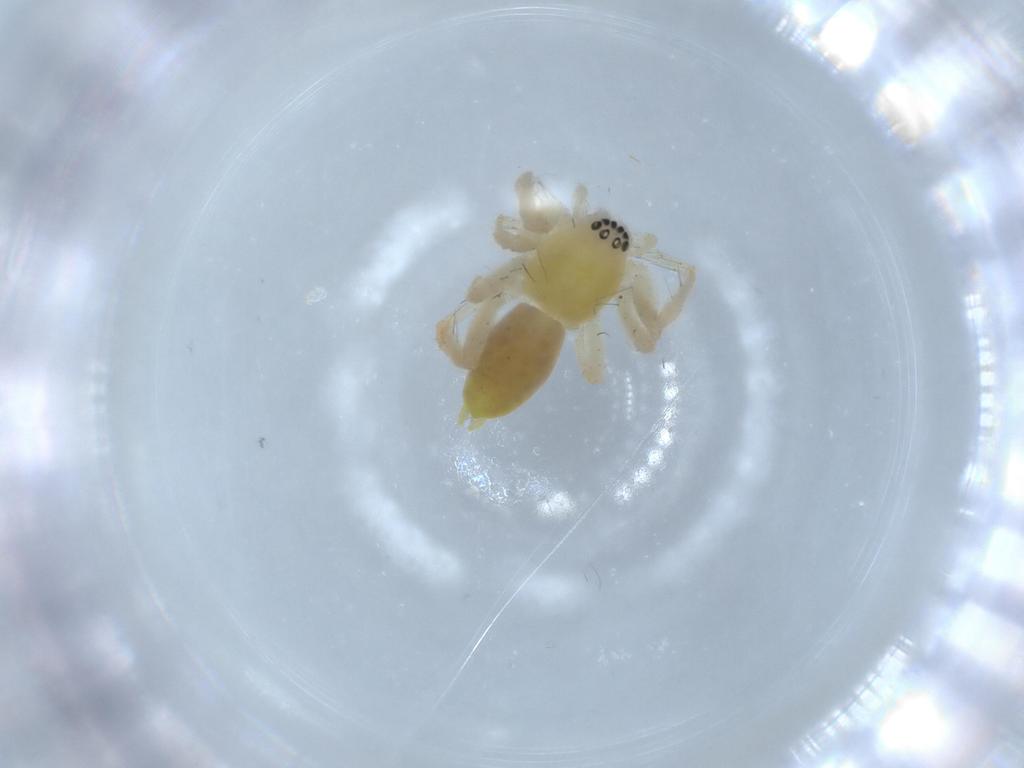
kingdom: Animalia
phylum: Arthropoda
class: Arachnida
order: Araneae
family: Anyphaenidae
